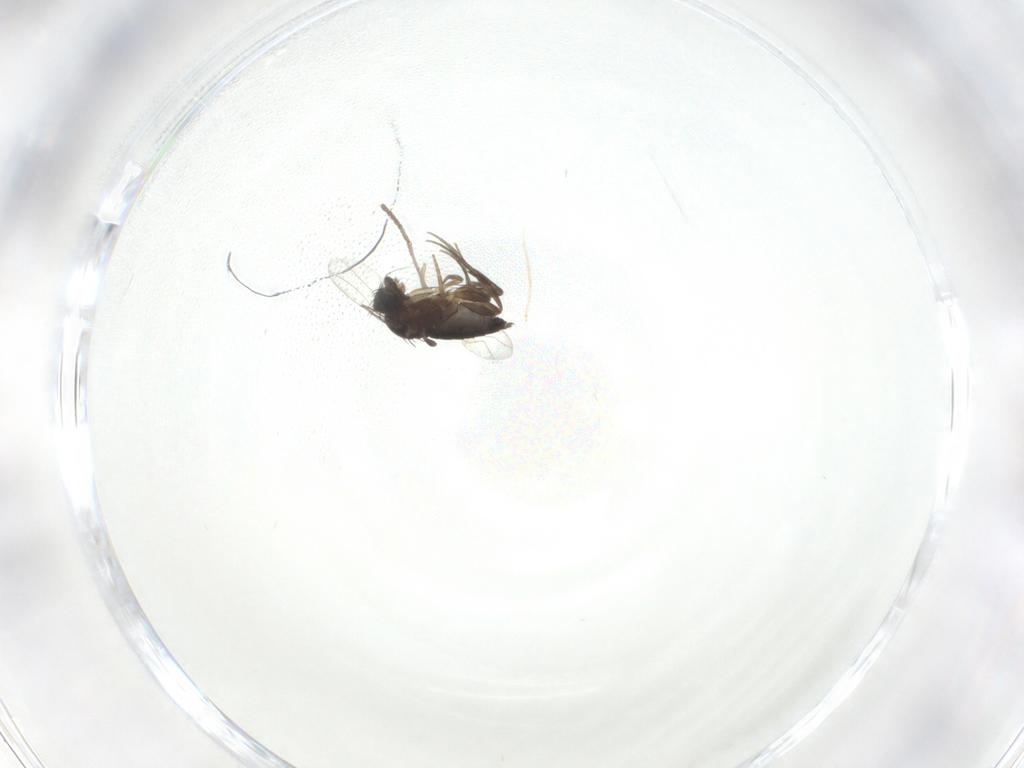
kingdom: Animalia
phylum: Arthropoda
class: Insecta
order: Diptera
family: Phoridae
